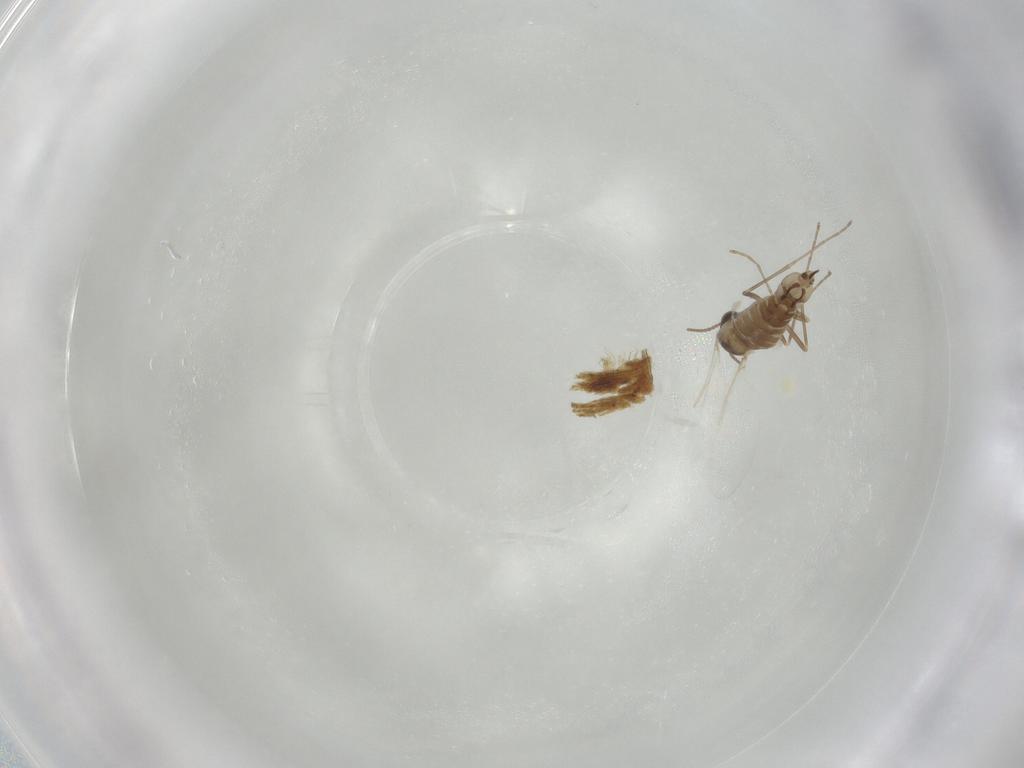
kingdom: Animalia
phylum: Arthropoda
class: Insecta
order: Diptera
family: Cecidomyiidae
